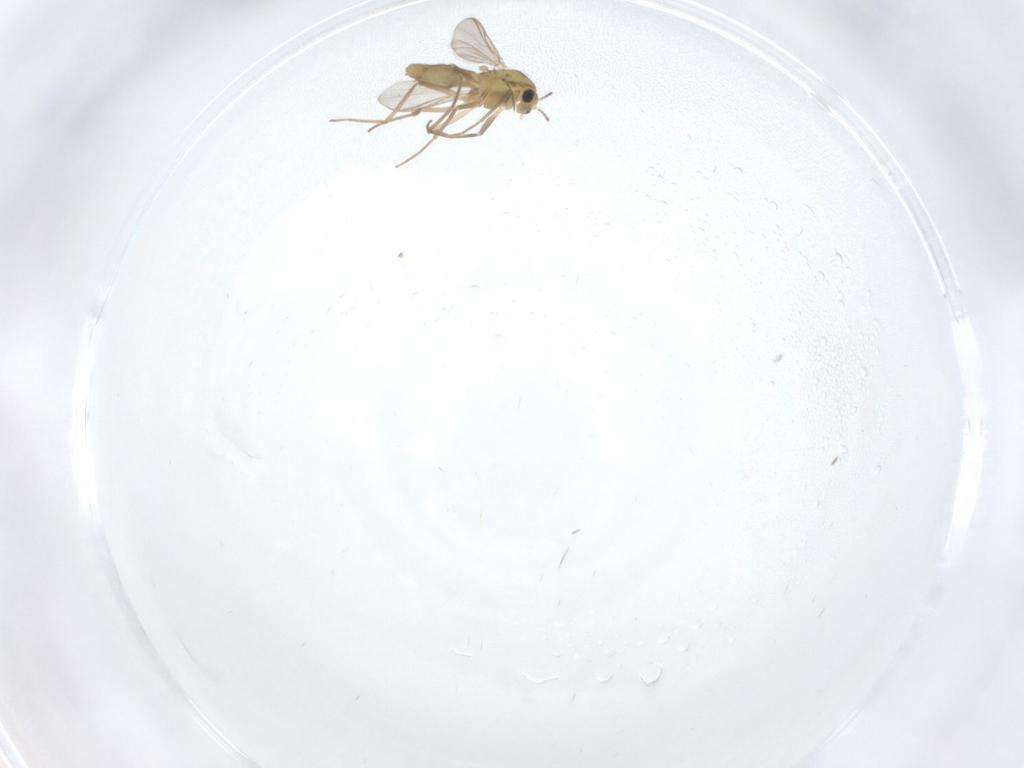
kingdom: Animalia
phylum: Arthropoda
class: Insecta
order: Diptera
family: Chironomidae
